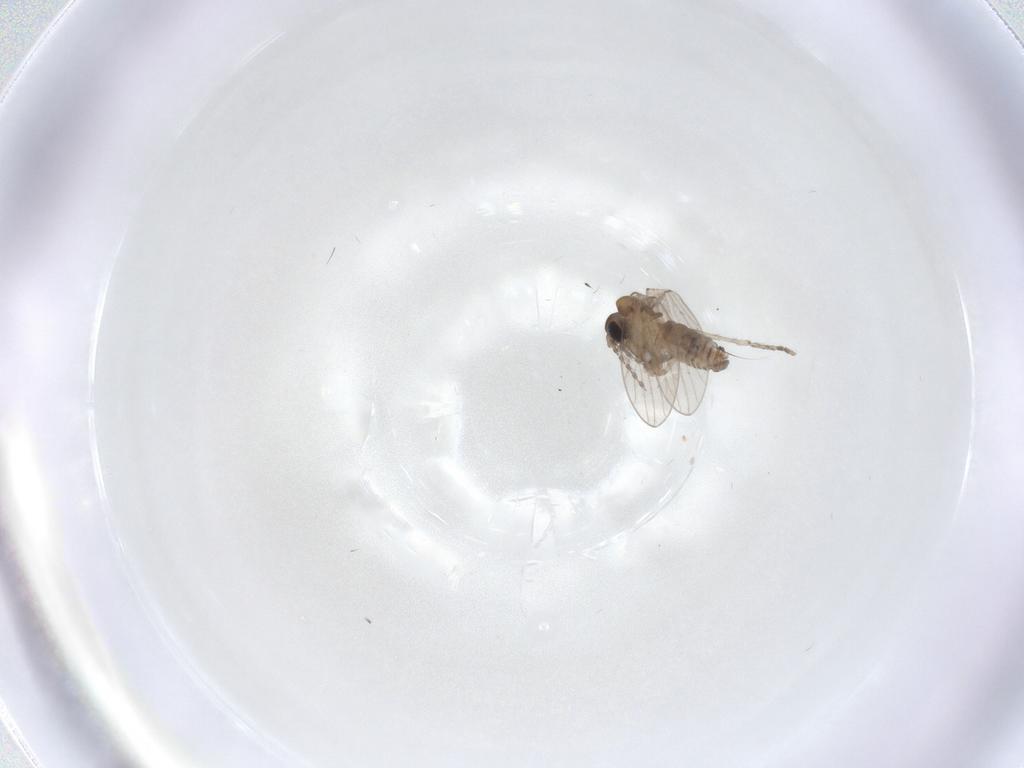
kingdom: Animalia
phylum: Arthropoda
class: Insecta
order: Diptera
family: Psychodidae
